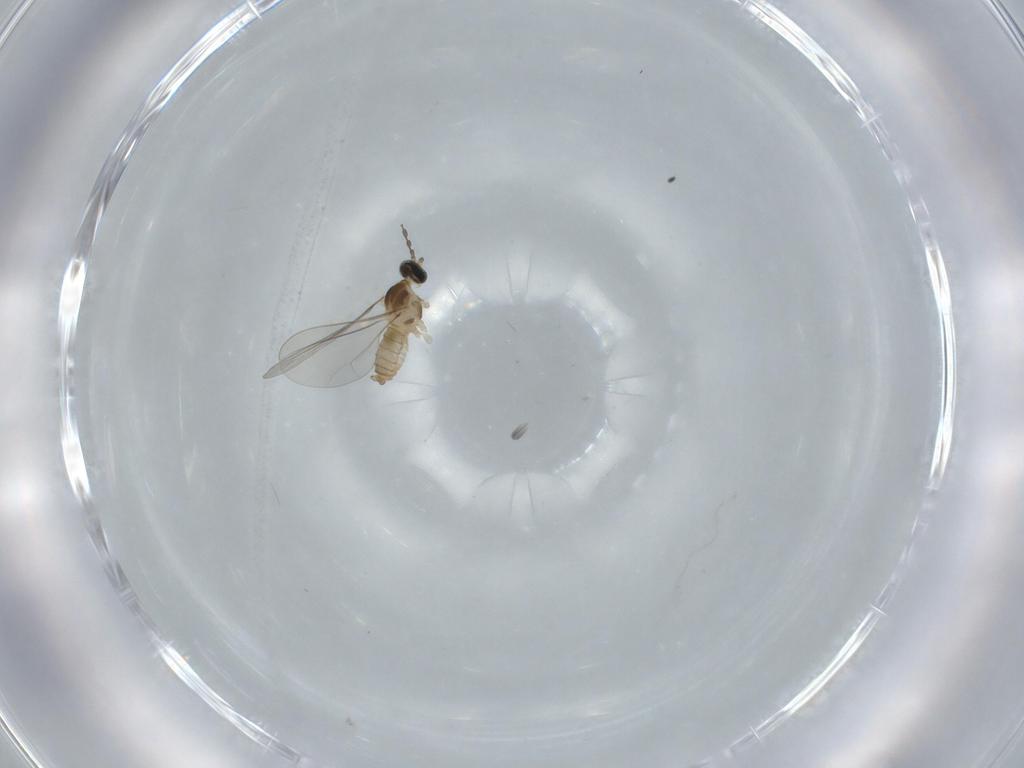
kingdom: Animalia
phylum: Arthropoda
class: Insecta
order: Diptera
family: Cecidomyiidae
